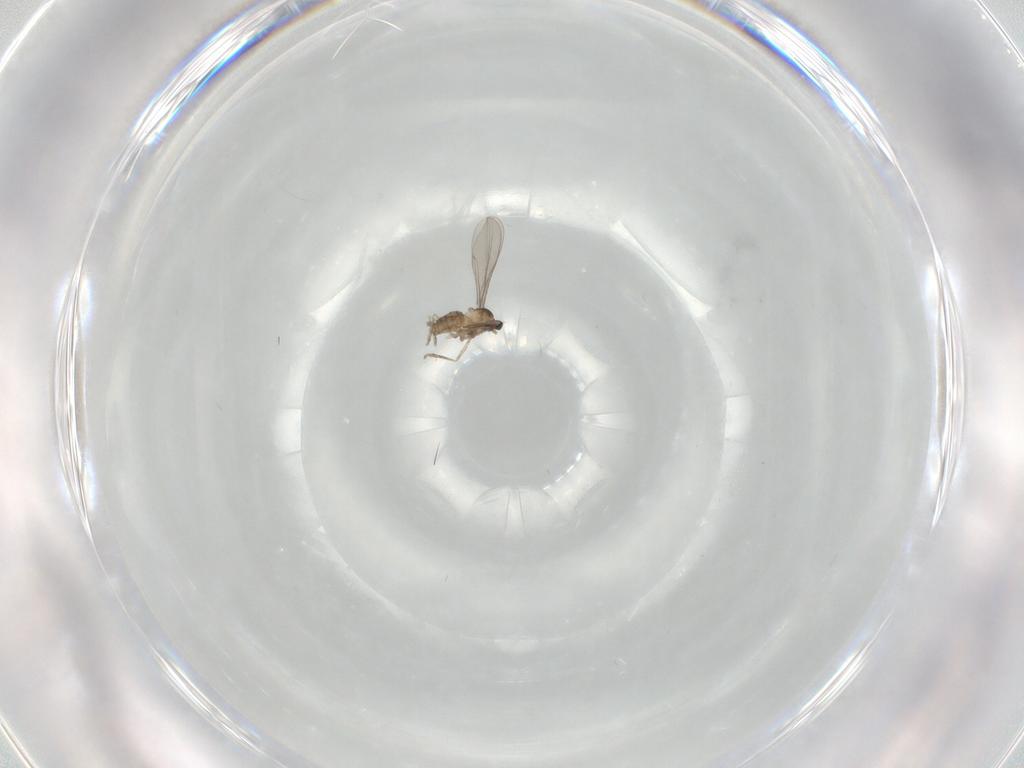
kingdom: Animalia
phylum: Arthropoda
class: Insecta
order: Diptera
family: Cecidomyiidae
